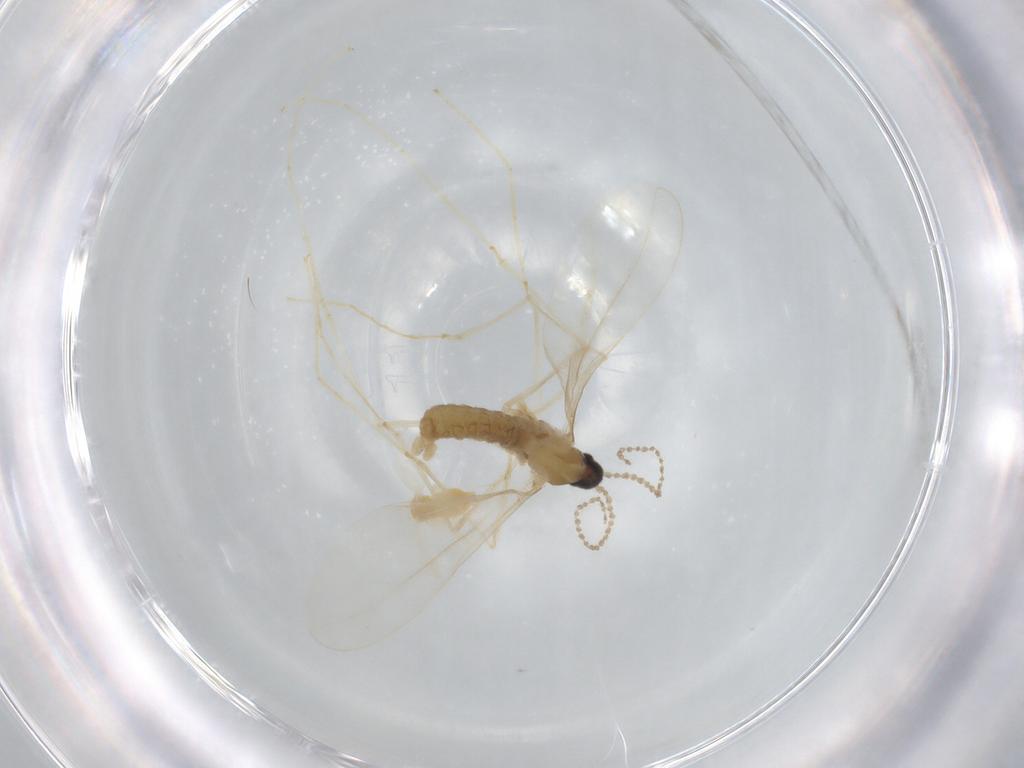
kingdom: Animalia
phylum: Arthropoda
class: Insecta
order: Diptera
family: Cecidomyiidae
